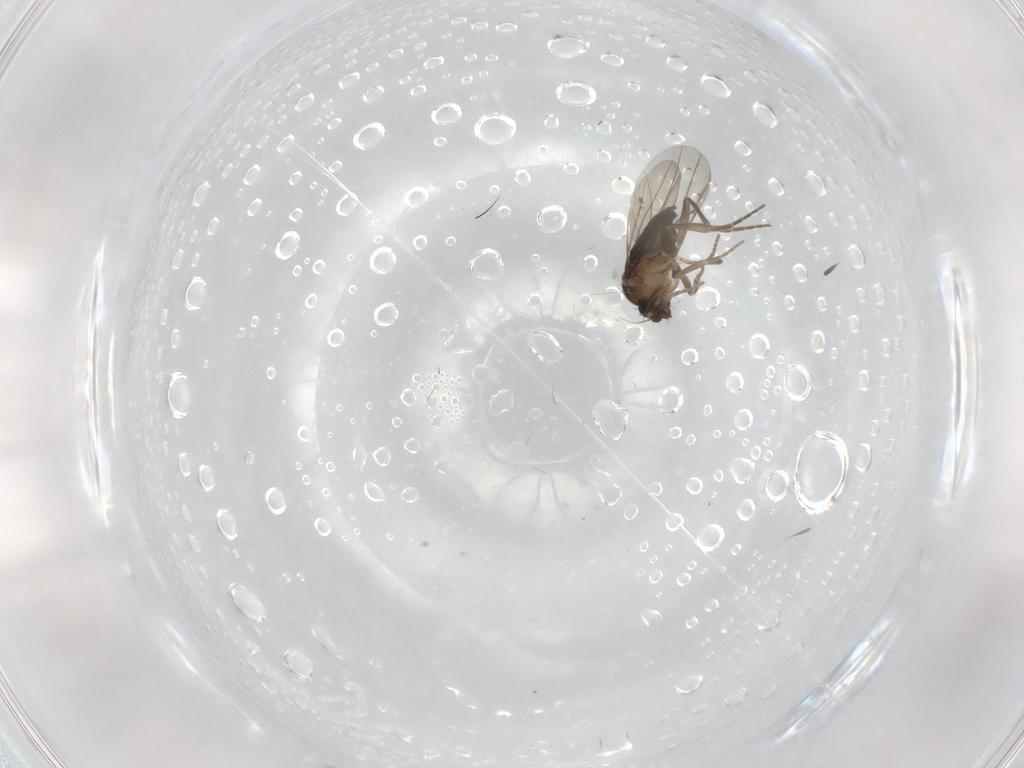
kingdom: Animalia
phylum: Arthropoda
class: Insecta
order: Diptera
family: Phoridae
